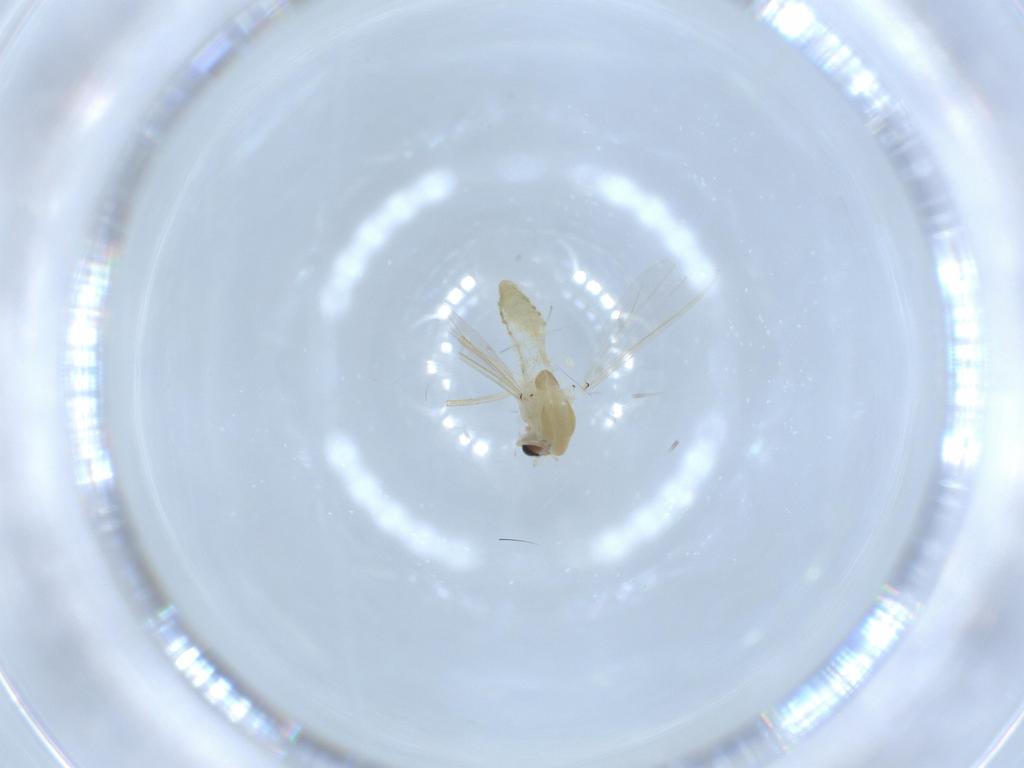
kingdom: Animalia
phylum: Arthropoda
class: Insecta
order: Diptera
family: Chironomidae
